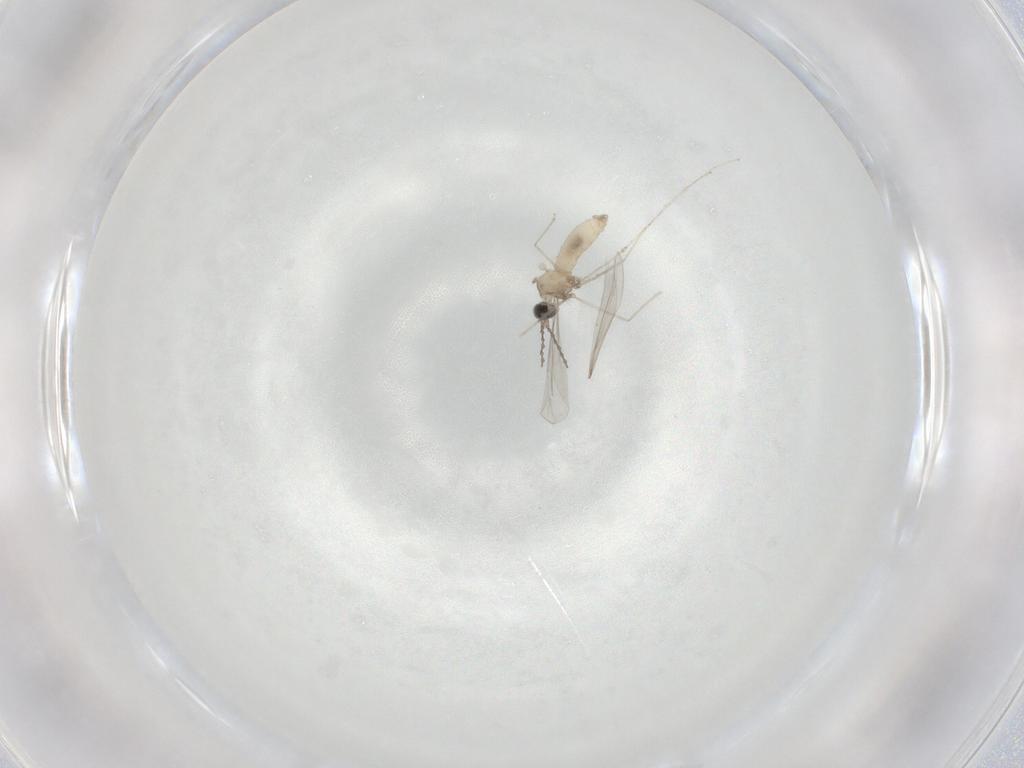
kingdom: Animalia
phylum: Arthropoda
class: Insecta
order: Diptera
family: Cecidomyiidae
